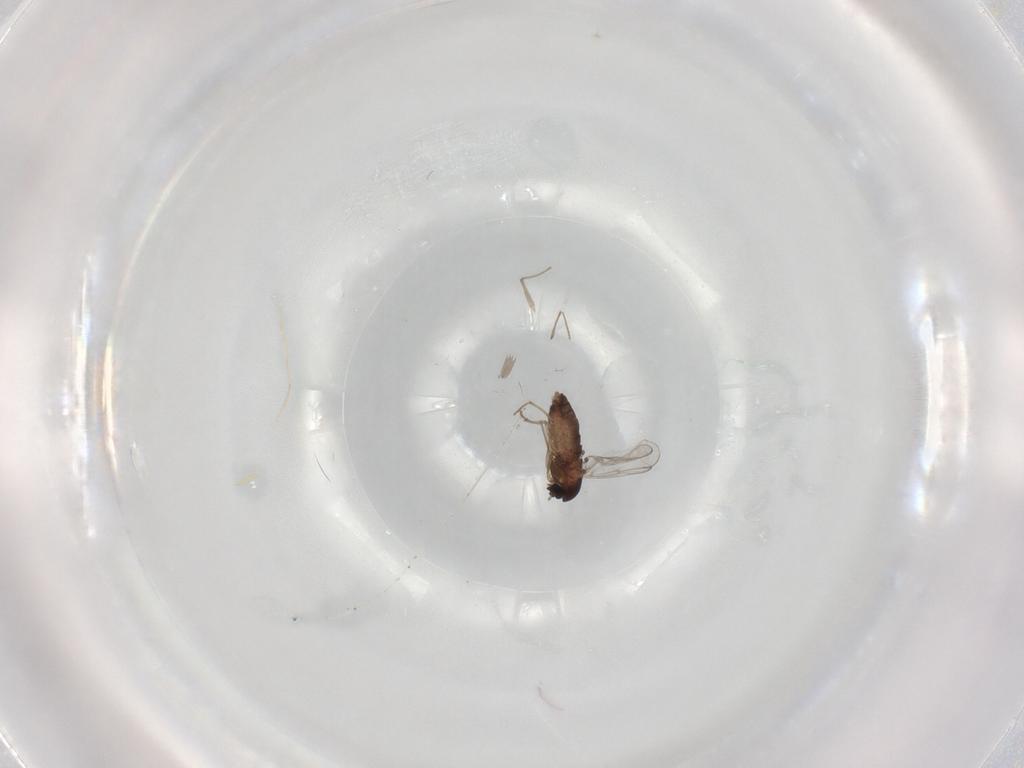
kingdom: Animalia
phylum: Arthropoda
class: Insecta
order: Diptera
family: Chironomidae
